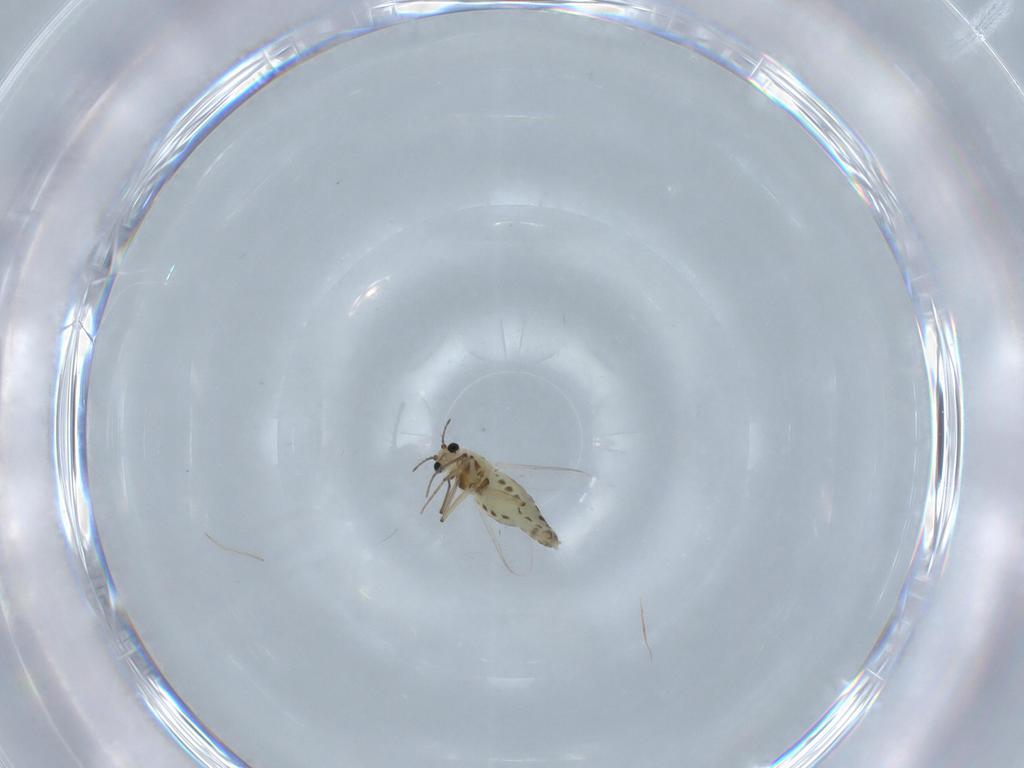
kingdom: Animalia
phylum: Arthropoda
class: Insecta
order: Diptera
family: Chironomidae
